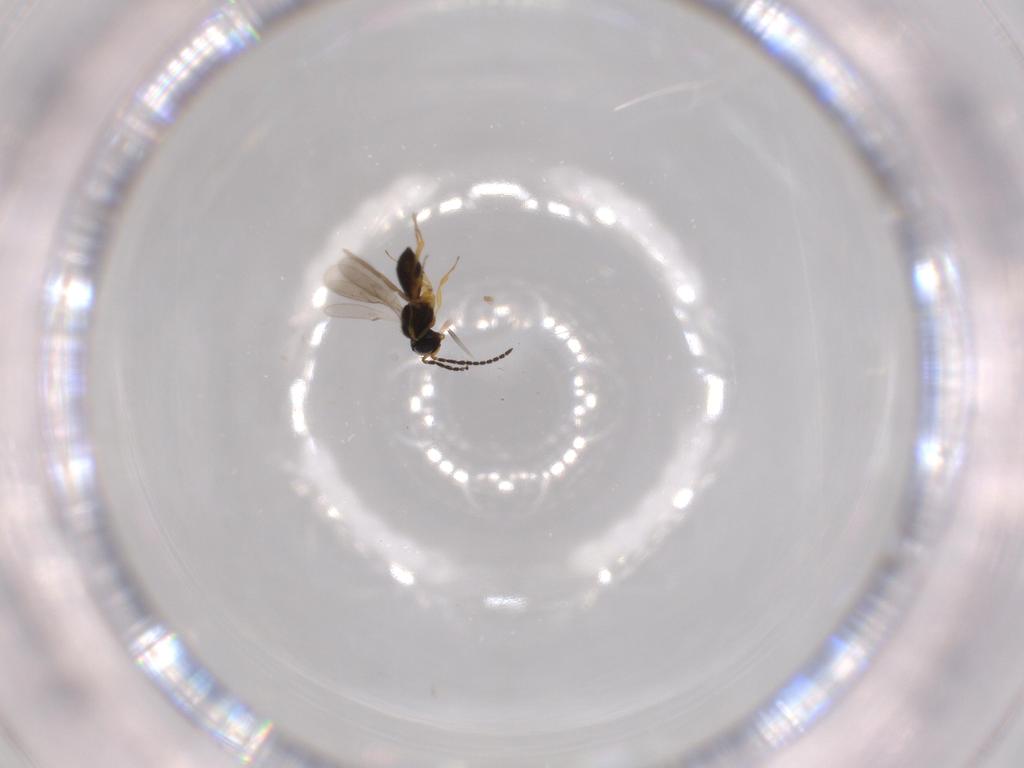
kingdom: Animalia
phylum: Arthropoda
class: Insecta
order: Hymenoptera
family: Scelionidae
